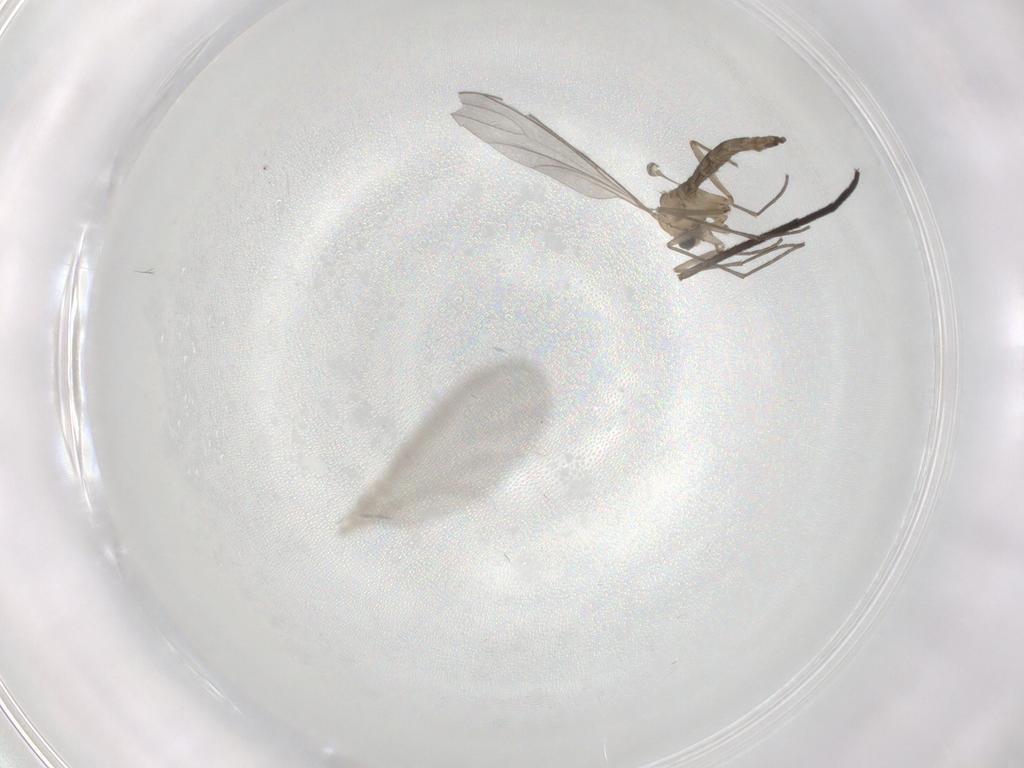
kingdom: Animalia
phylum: Arthropoda
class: Insecta
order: Diptera
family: Sciaridae
